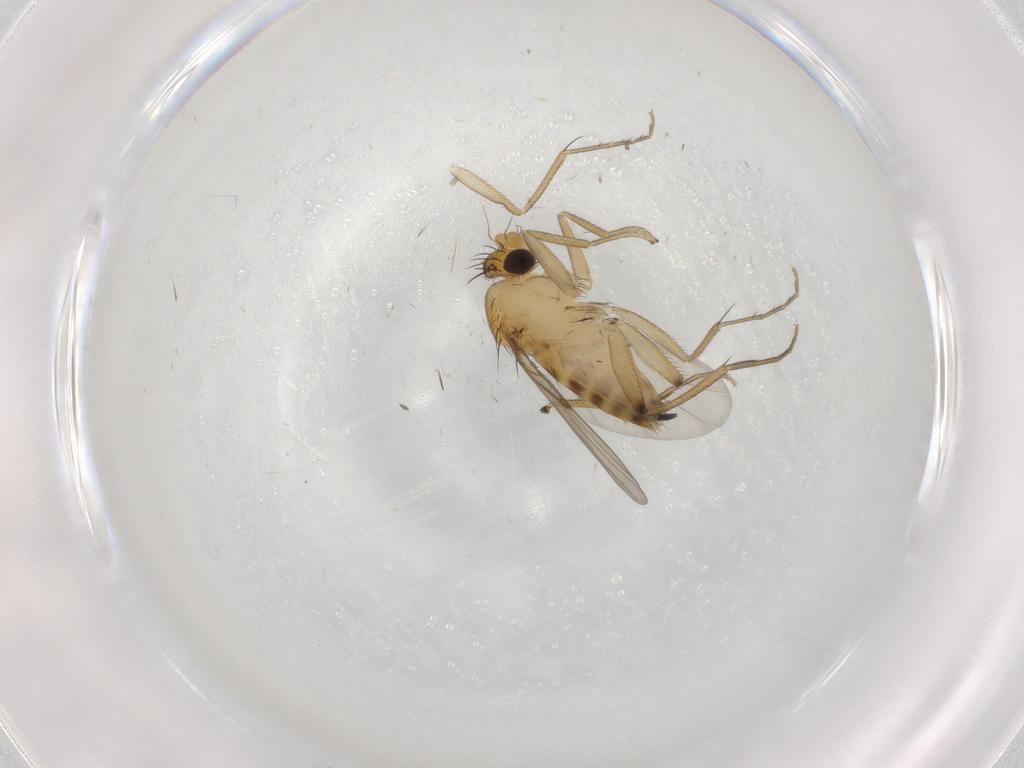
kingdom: Animalia
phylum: Arthropoda
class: Insecta
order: Diptera
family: Phoridae
